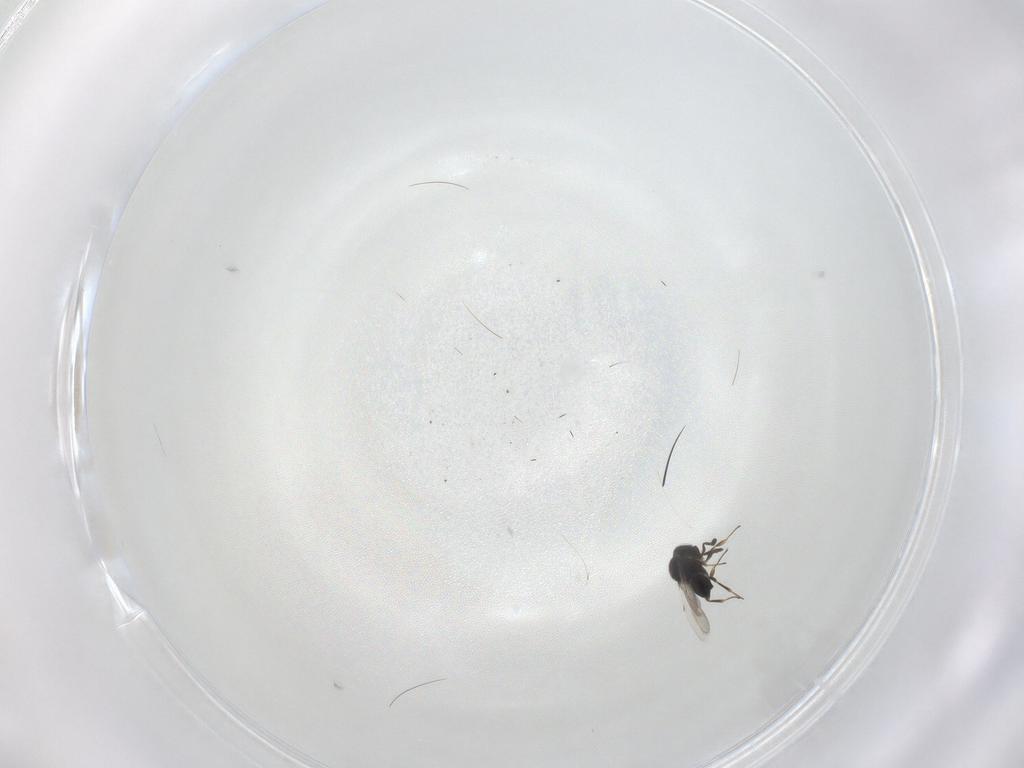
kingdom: Animalia
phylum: Arthropoda
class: Insecta
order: Hymenoptera
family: Scelionidae
